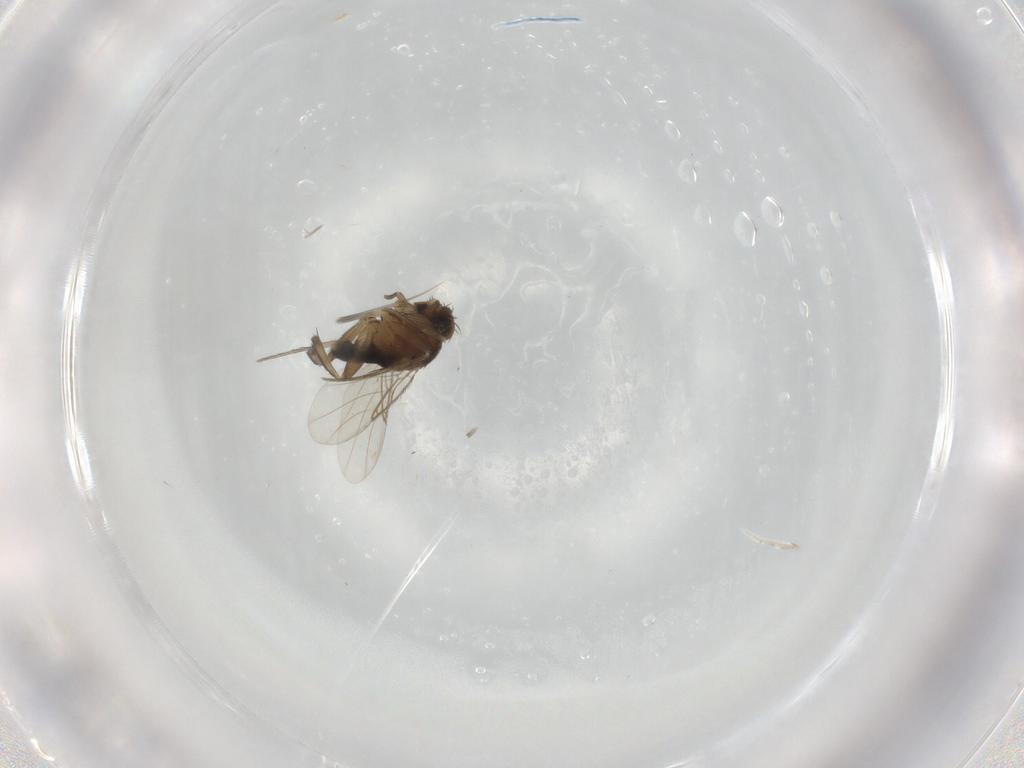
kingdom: Animalia
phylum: Arthropoda
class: Insecta
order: Diptera
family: Phoridae
